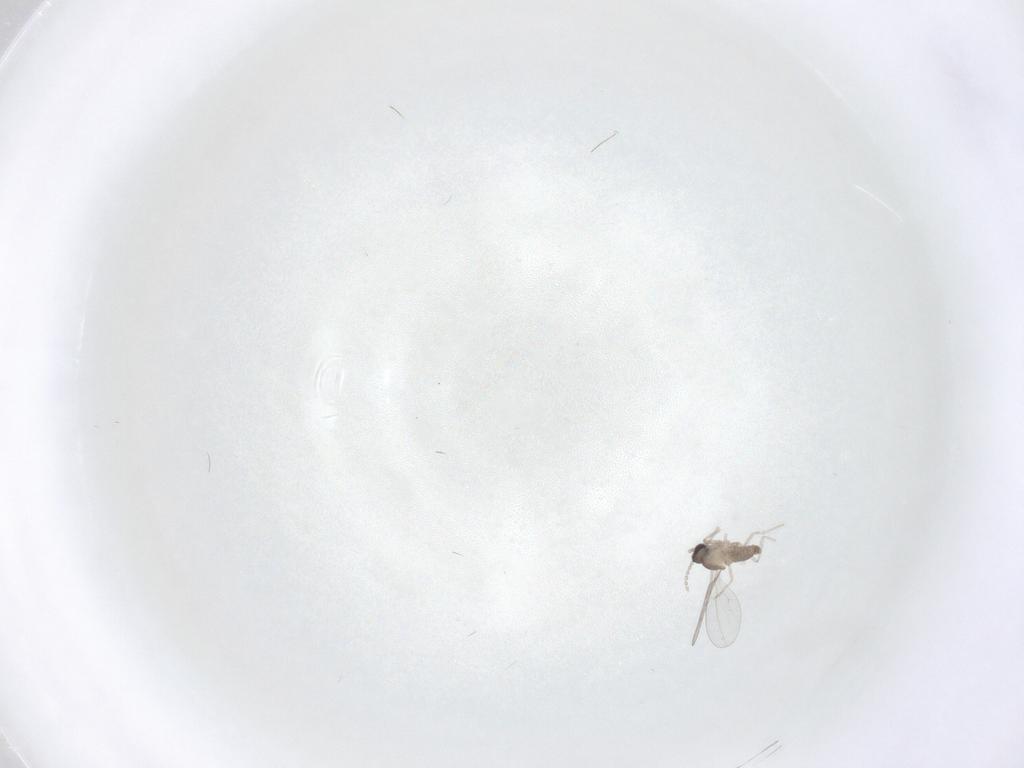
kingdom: Animalia
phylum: Arthropoda
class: Insecta
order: Diptera
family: Cecidomyiidae
